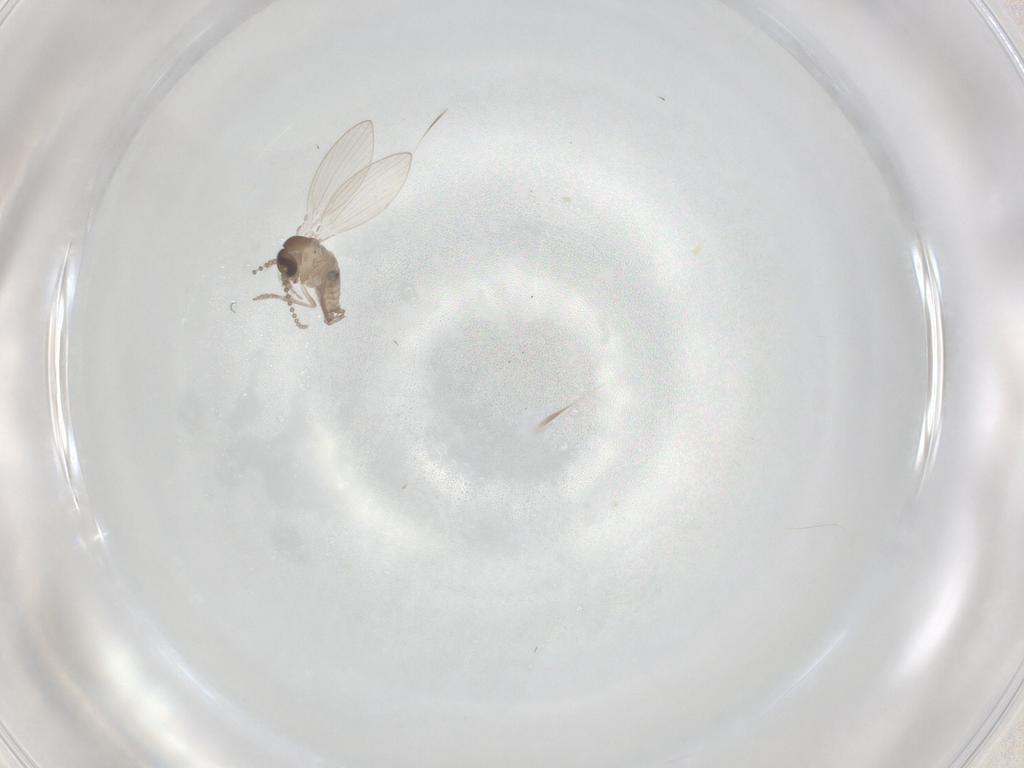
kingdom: Animalia
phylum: Arthropoda
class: Insecta
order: Diptera
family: Psychodidae
